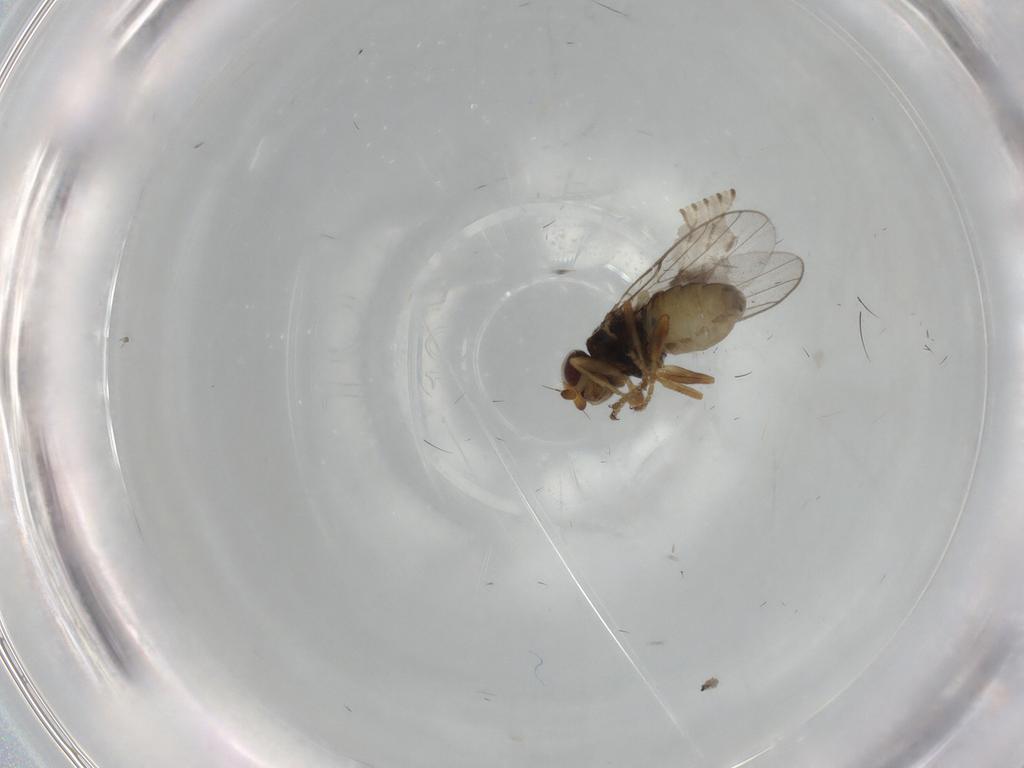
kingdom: Animalia
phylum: Arthropoda
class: Insecta
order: Diptera
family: Chloropidae
